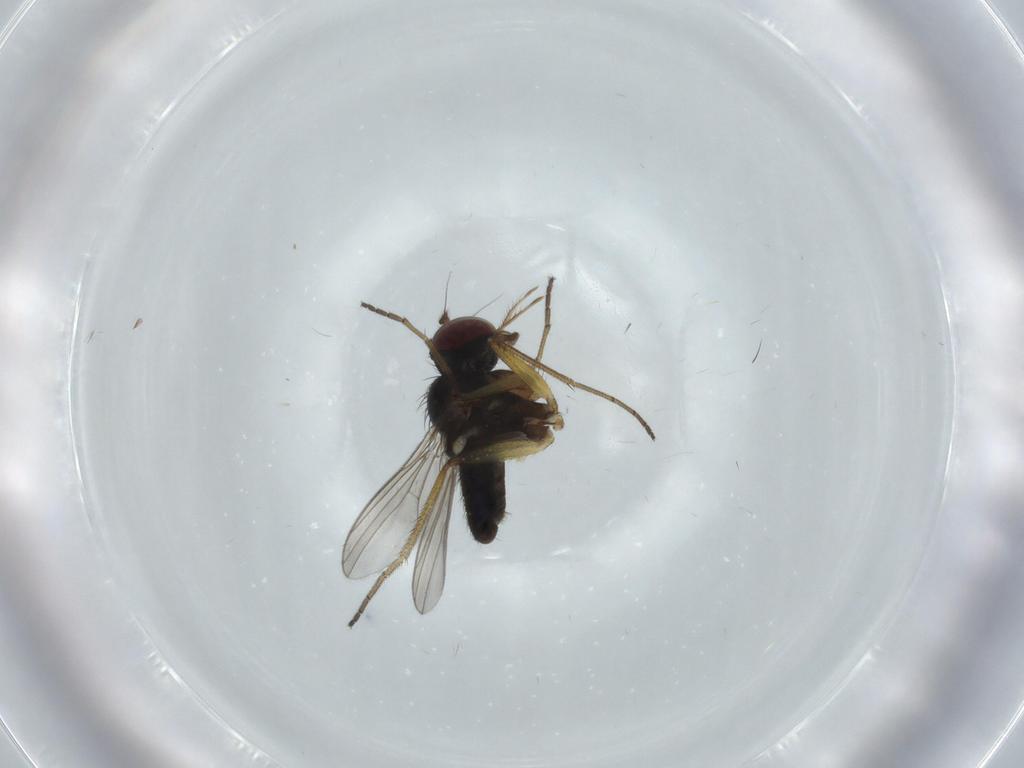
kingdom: Animalia
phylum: Arthropoda
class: Insecta
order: Diptera
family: Dolichopodidae
